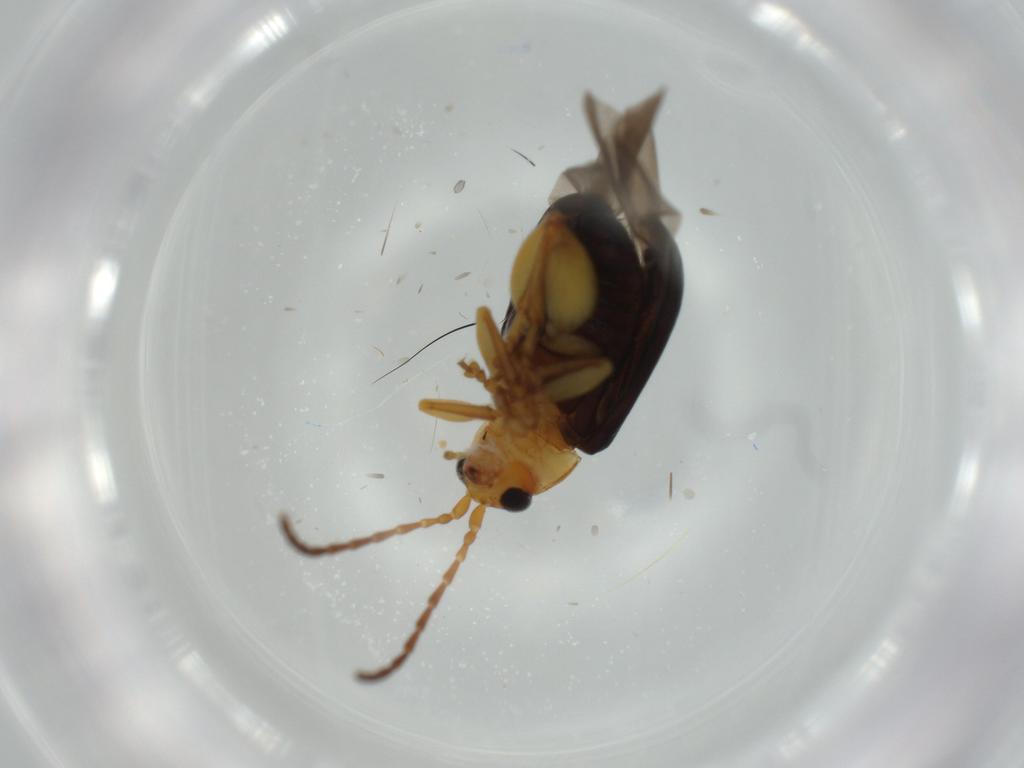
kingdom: Animalia
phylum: Arthropoda
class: Insecta
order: Coleoptera
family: Chrysomelidae
